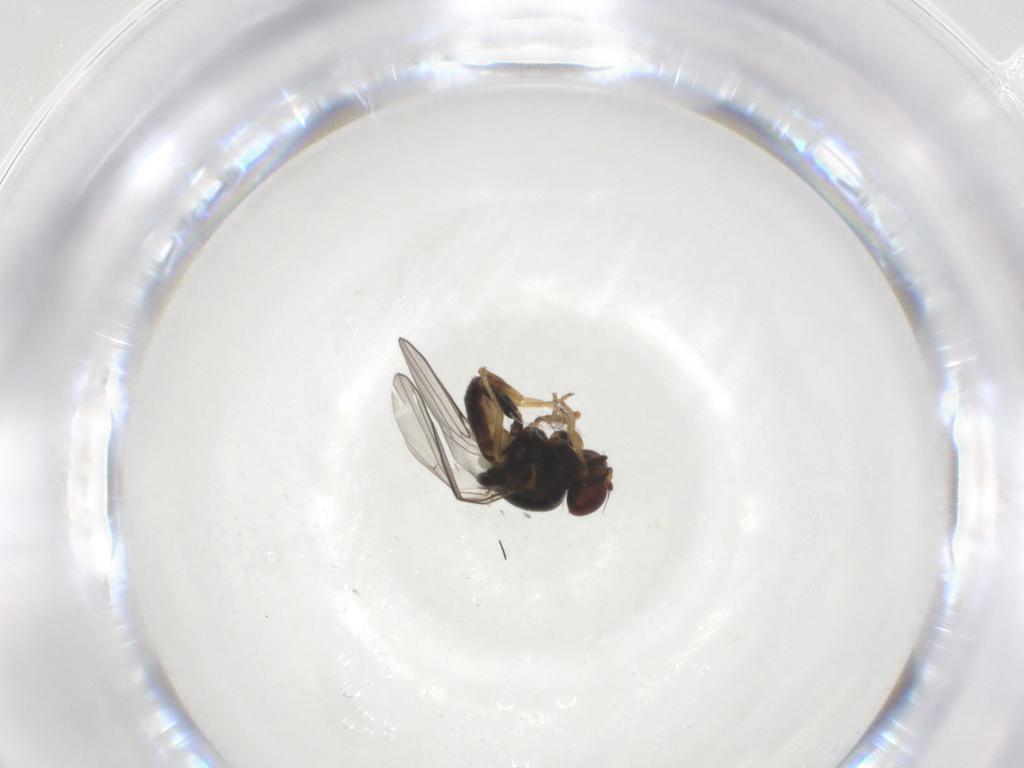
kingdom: Animalia
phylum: Arthropoda
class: Insecta
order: Diptera
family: Chloropidae
